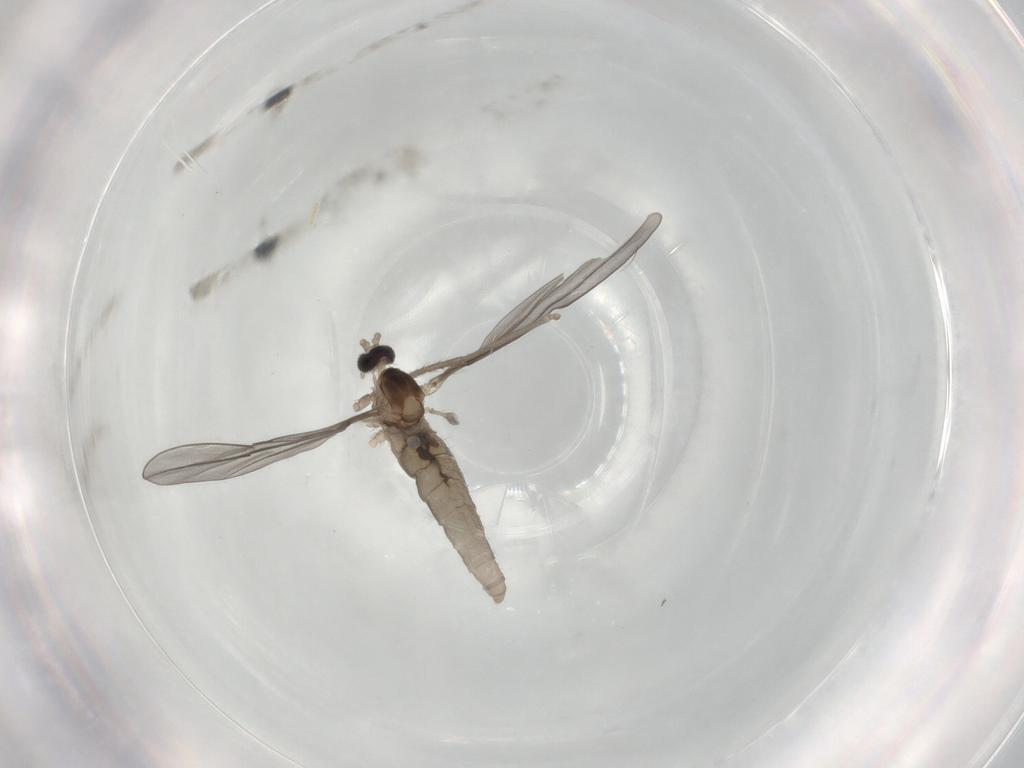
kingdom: Animalia
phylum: Arthropoda
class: Insecta
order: Diptera
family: Cecidomyiidae
